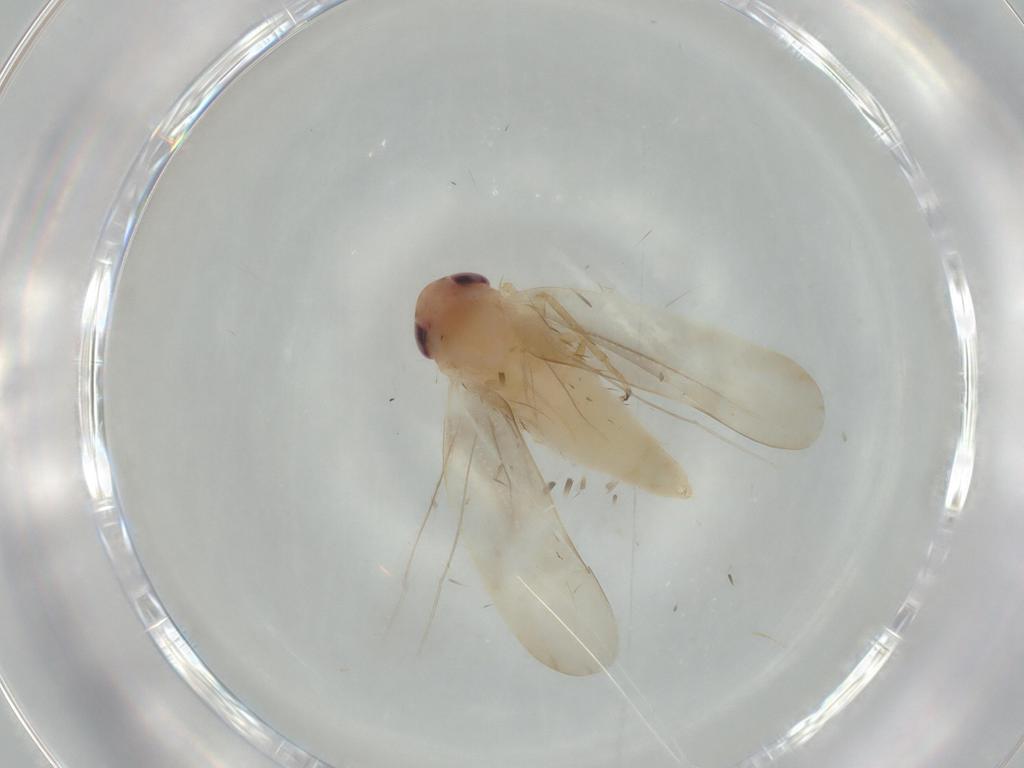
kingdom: Animalia
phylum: Arthropoda
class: Insecta
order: Hemiptera
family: Cicadellidae
